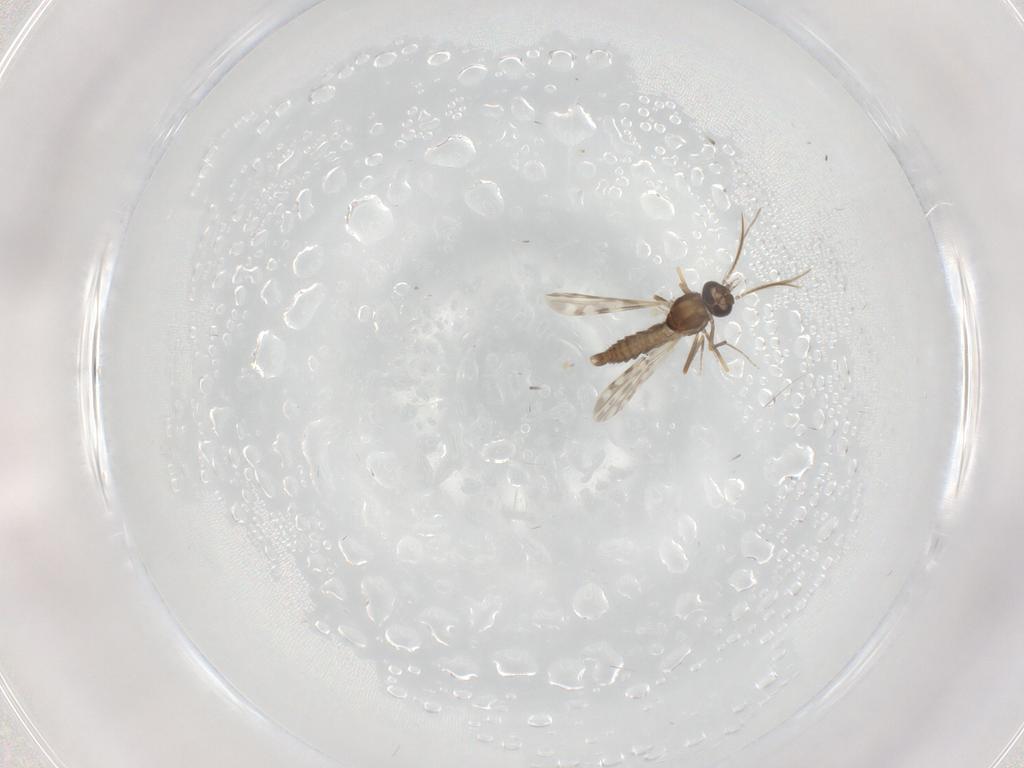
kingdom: Animalia
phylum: Arthropoda
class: Insecta
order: Diptera
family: Ceratopogonidae
